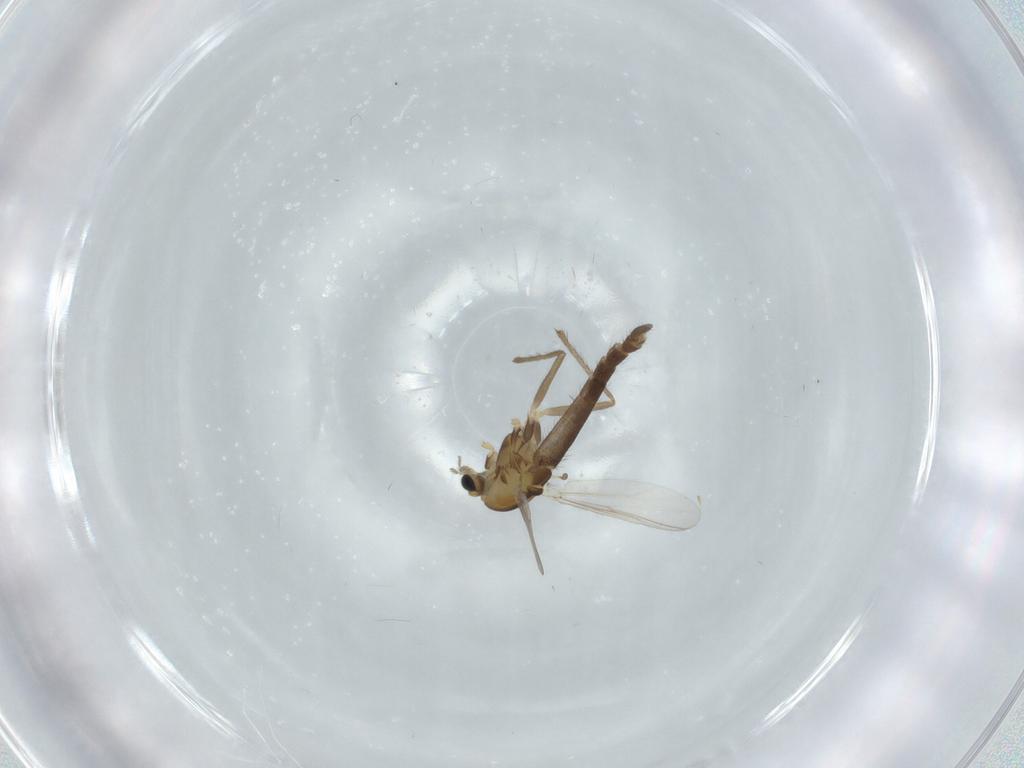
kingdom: Animalia
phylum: Arthropoda
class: Insecta
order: Diptera
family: Chironomidae
